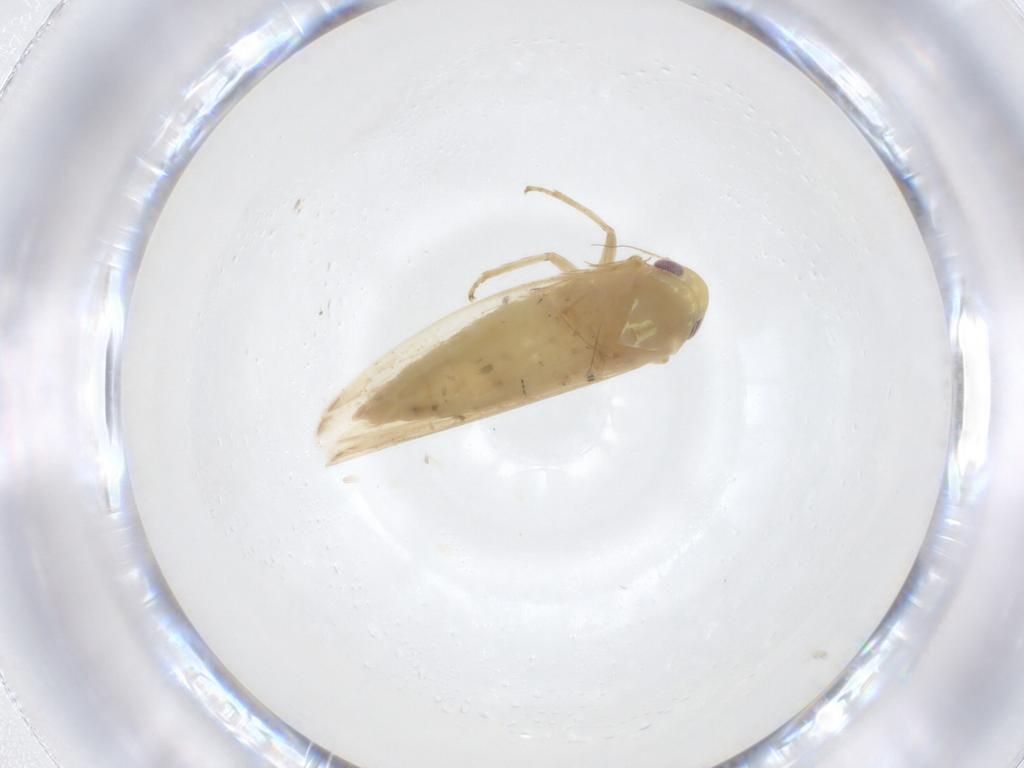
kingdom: Animalia
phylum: Arthropoda
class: Insecta
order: Hemiptera
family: Cicadellidae
